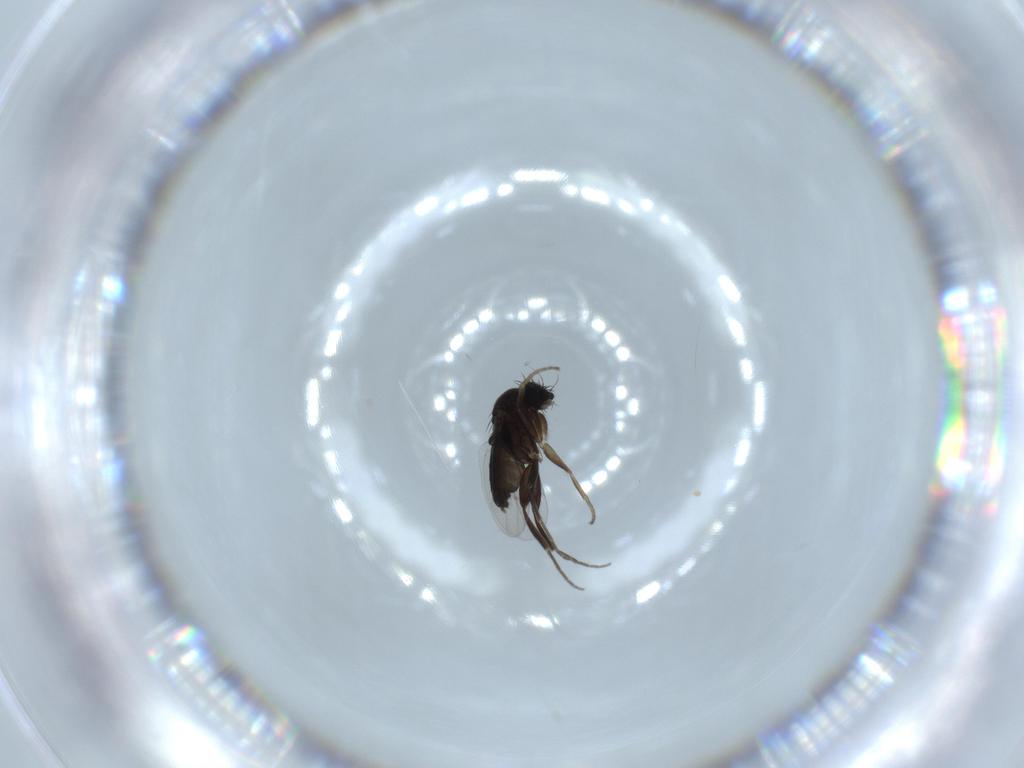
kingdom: Animalia
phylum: Arthropoda
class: Insecta
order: Diptera
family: Phoridae
